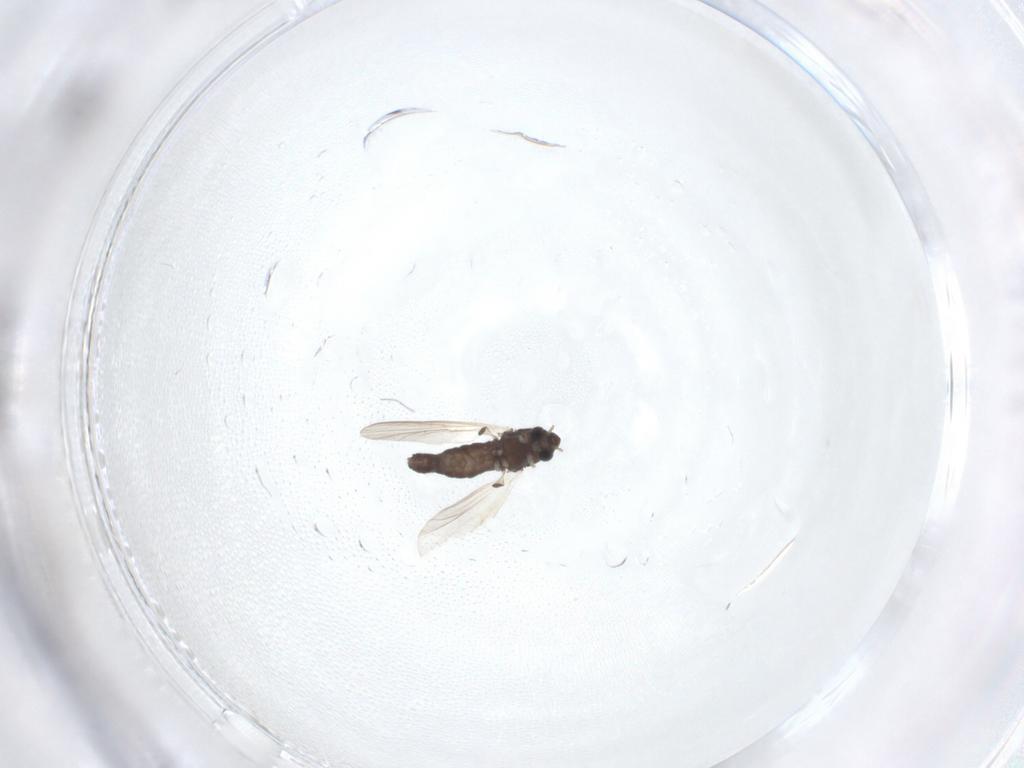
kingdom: Animalia
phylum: Arthropoda
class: Insecta
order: Diptera
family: Chironomidae
